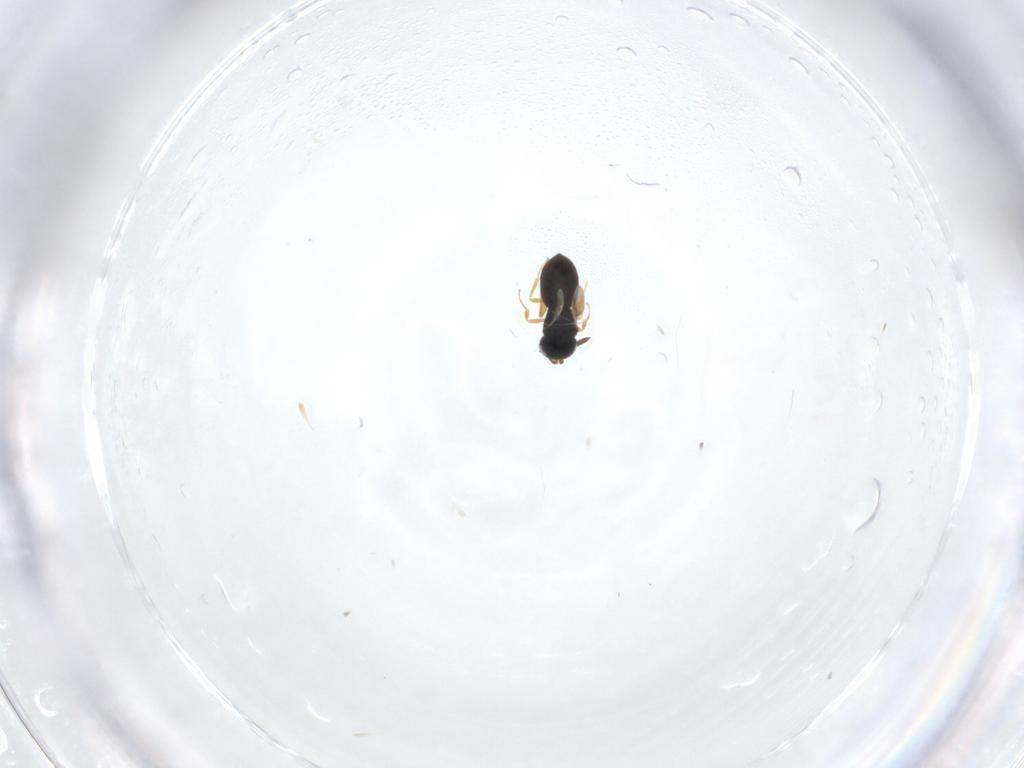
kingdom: Animalia
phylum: Arthropoda
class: Insecta
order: Hymenoptera
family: Scelionidae
